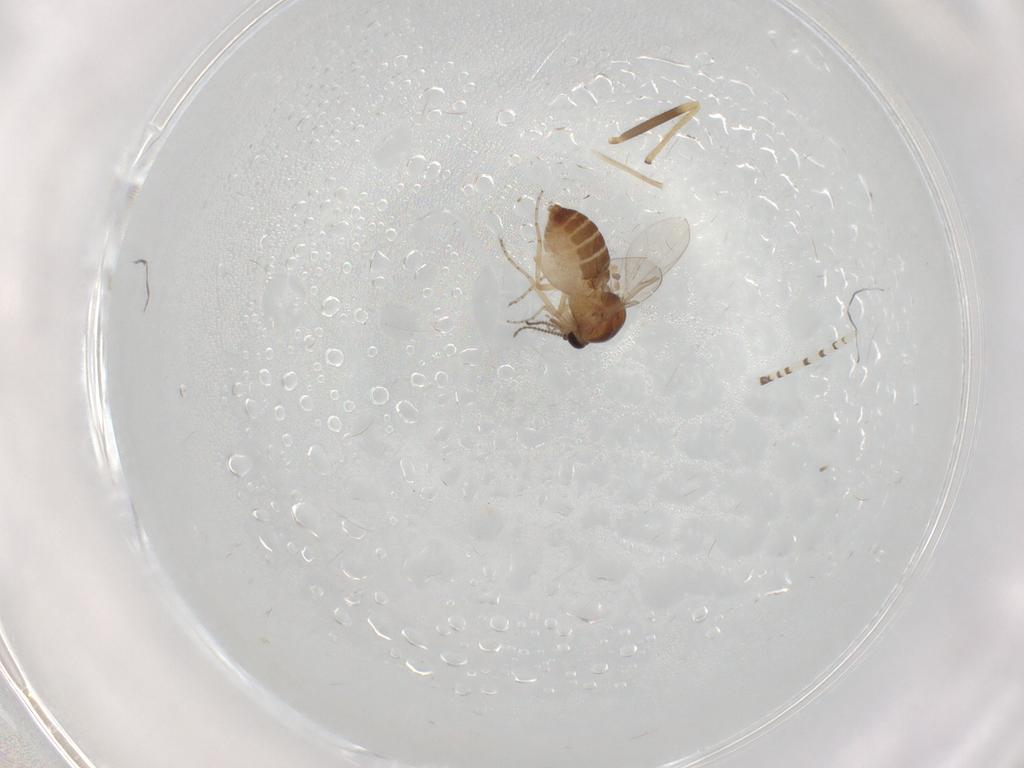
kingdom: Animalia
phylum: Arthropoda
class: Insecta
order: Diptera
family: Ceratopogonidae
